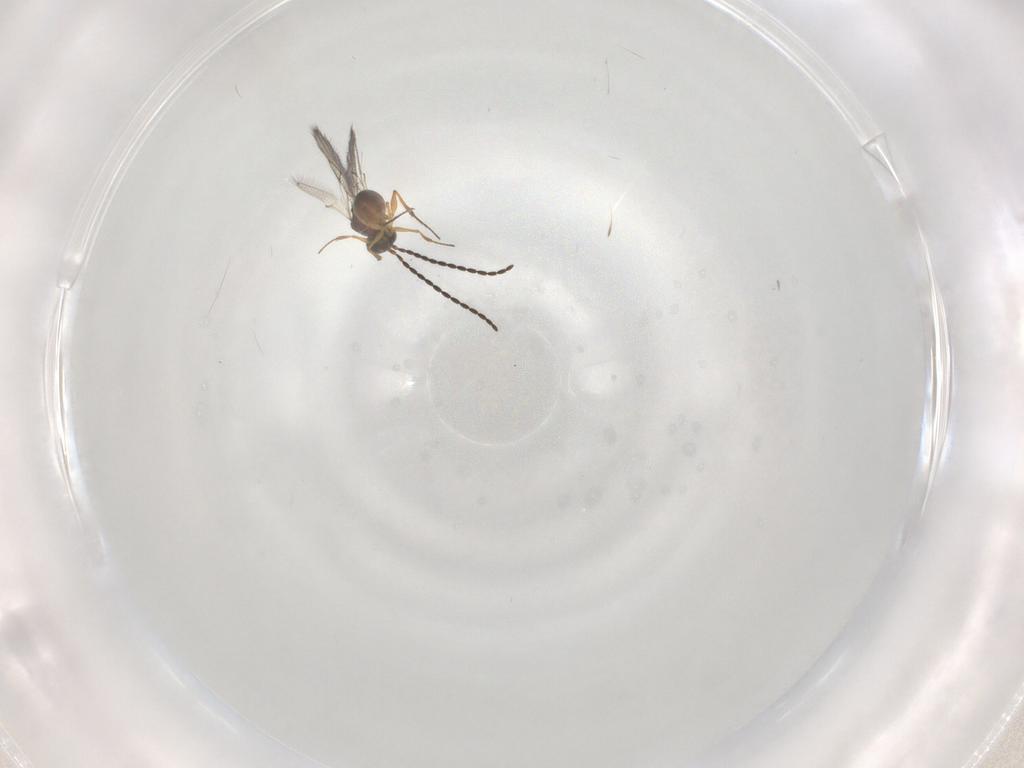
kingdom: Animalia
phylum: Arthropoda
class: Insecta
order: Hymenoptera
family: Figitidae
